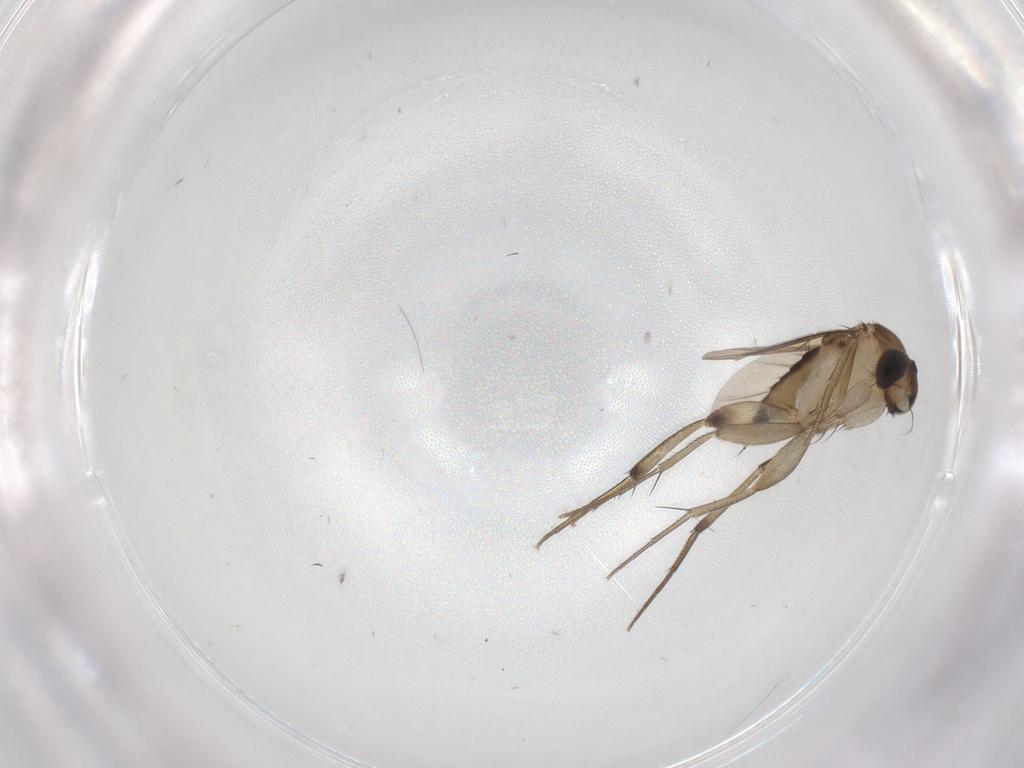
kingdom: Animalia
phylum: Arthropoda
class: Insecta
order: Diptera
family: Phoridae
